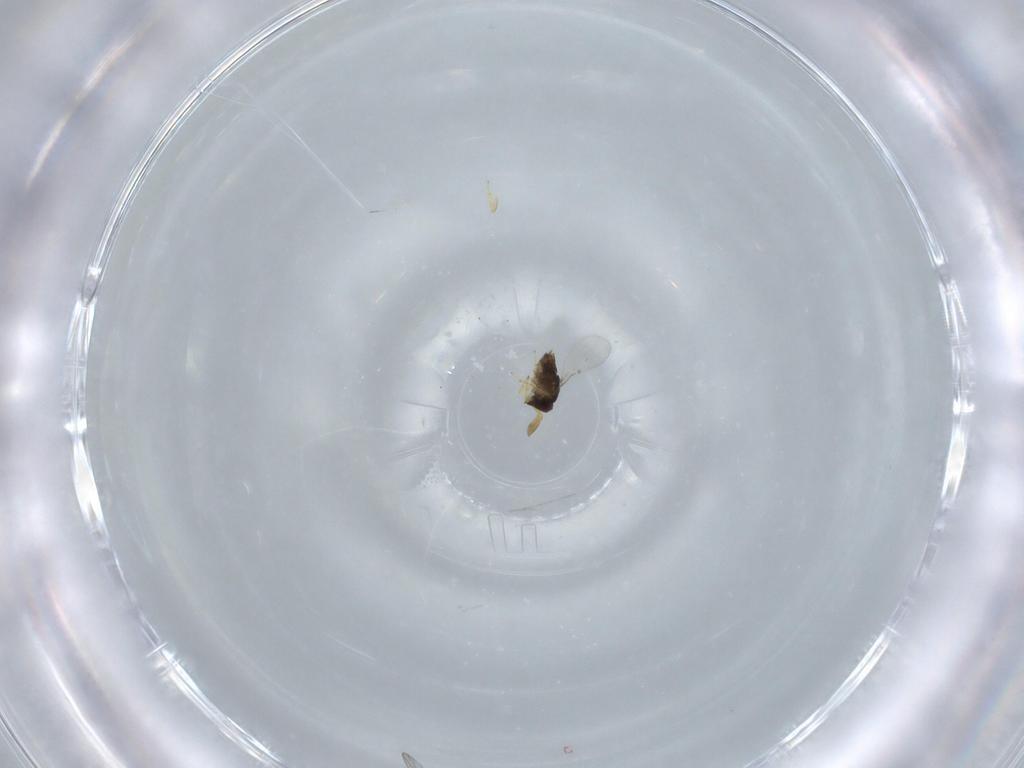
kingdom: Animalia
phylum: Arthropoda
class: Insecta
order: Hymenoptera
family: Encyrtidae
